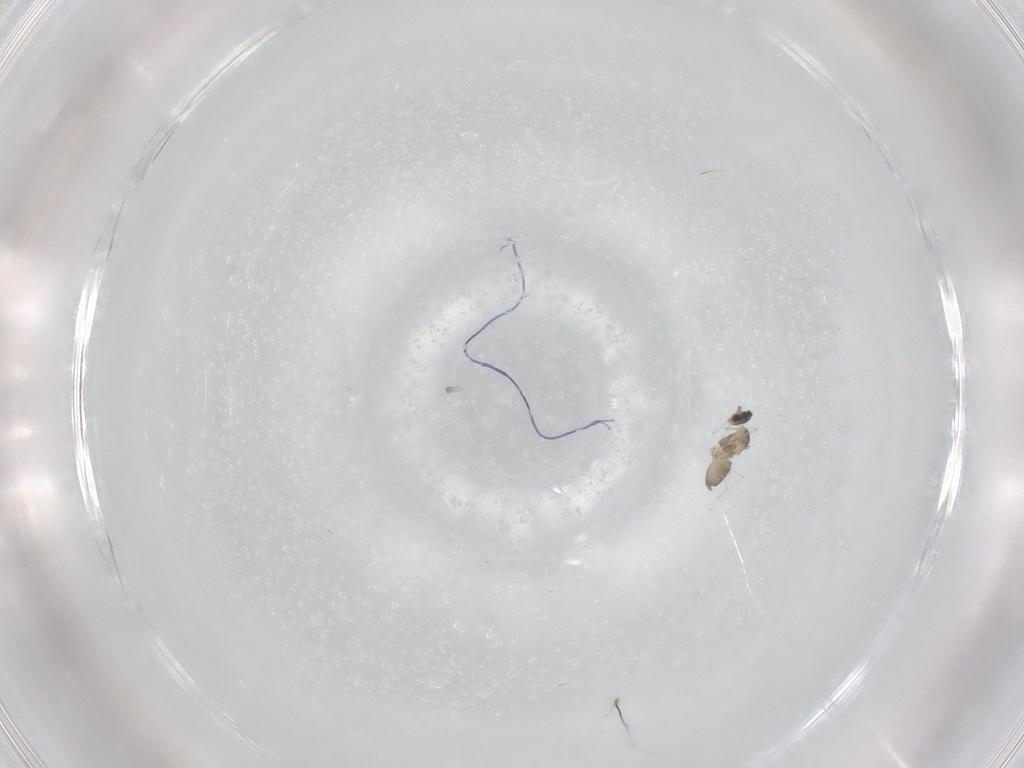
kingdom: Animalia
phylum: Arthropoda
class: Insecta
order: Diptera
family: Cecidomyiidae
